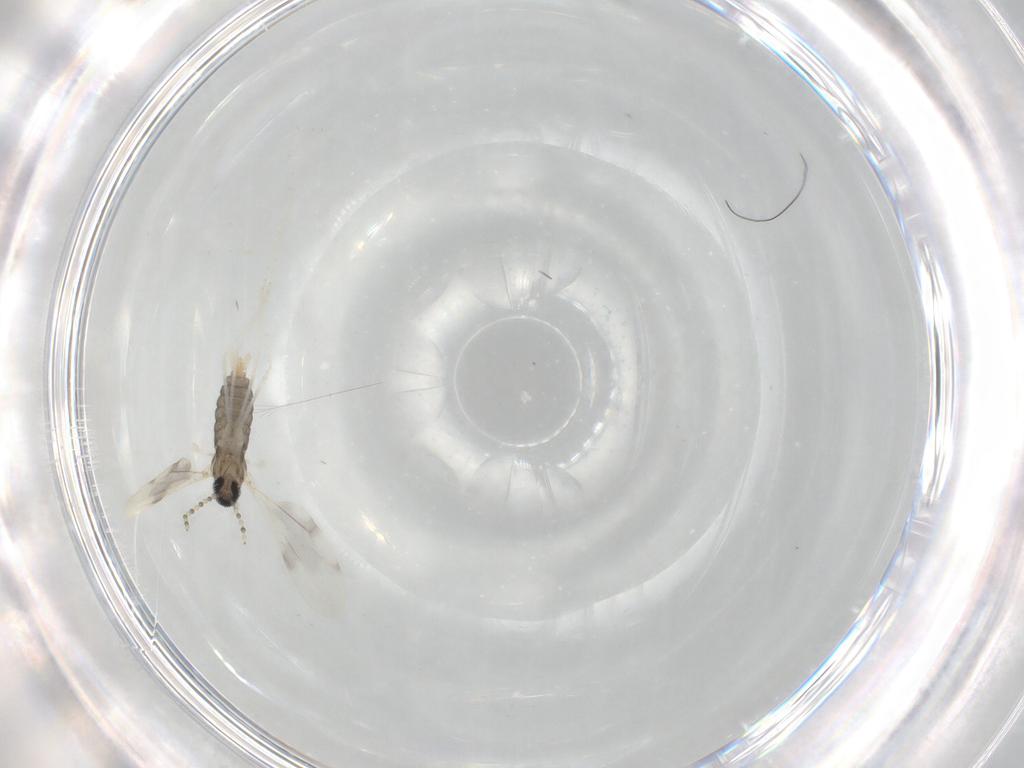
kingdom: Animalia
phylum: Arthropoda
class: Insecta
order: Diptera
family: Cecidomyiidae
